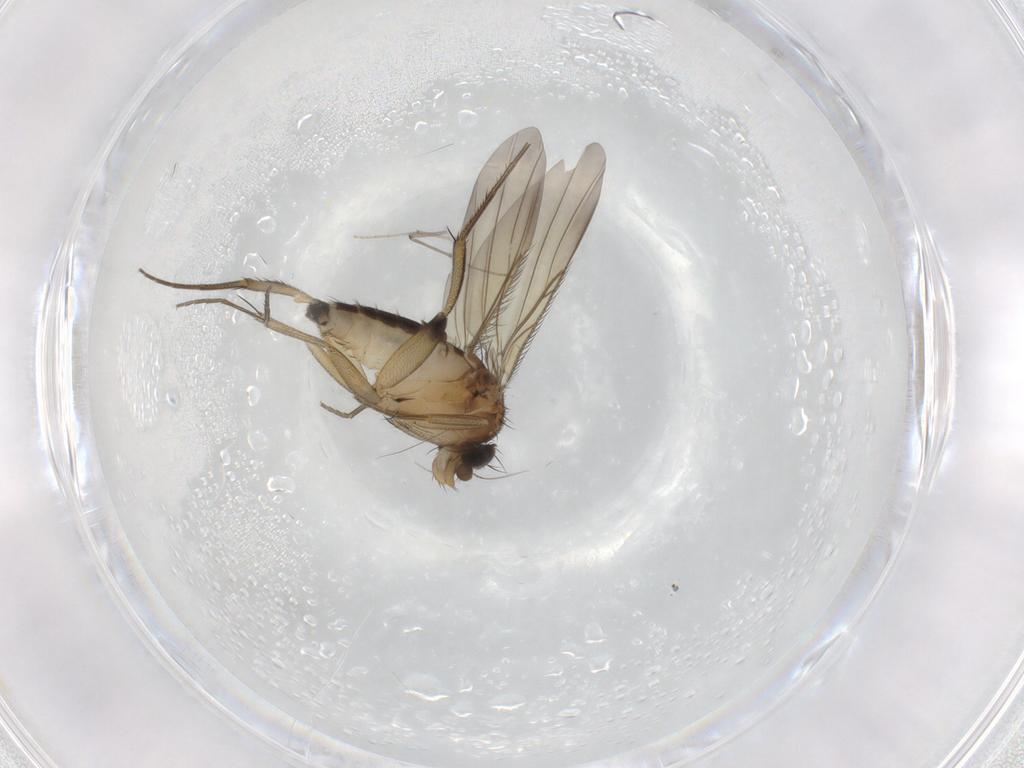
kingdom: Animalia
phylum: Arthropoda
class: Insecta
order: Diptera
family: Phoridae
